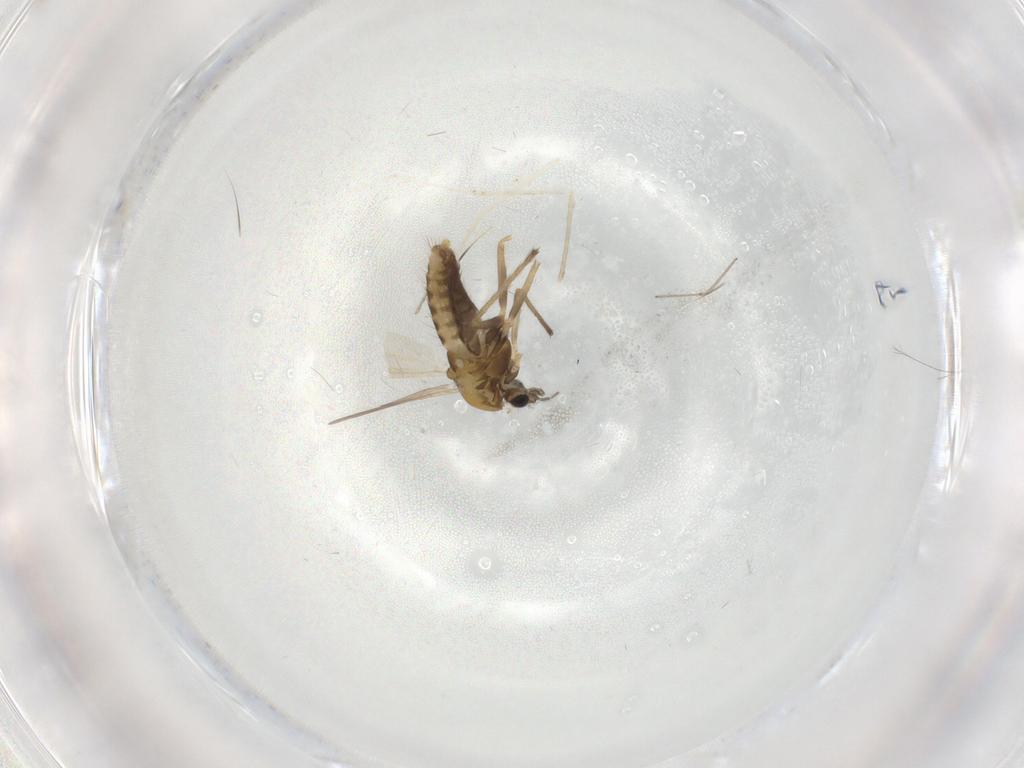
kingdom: Animalia
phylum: Arthropoda
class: Insecta
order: Diptera
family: Chironomidae
